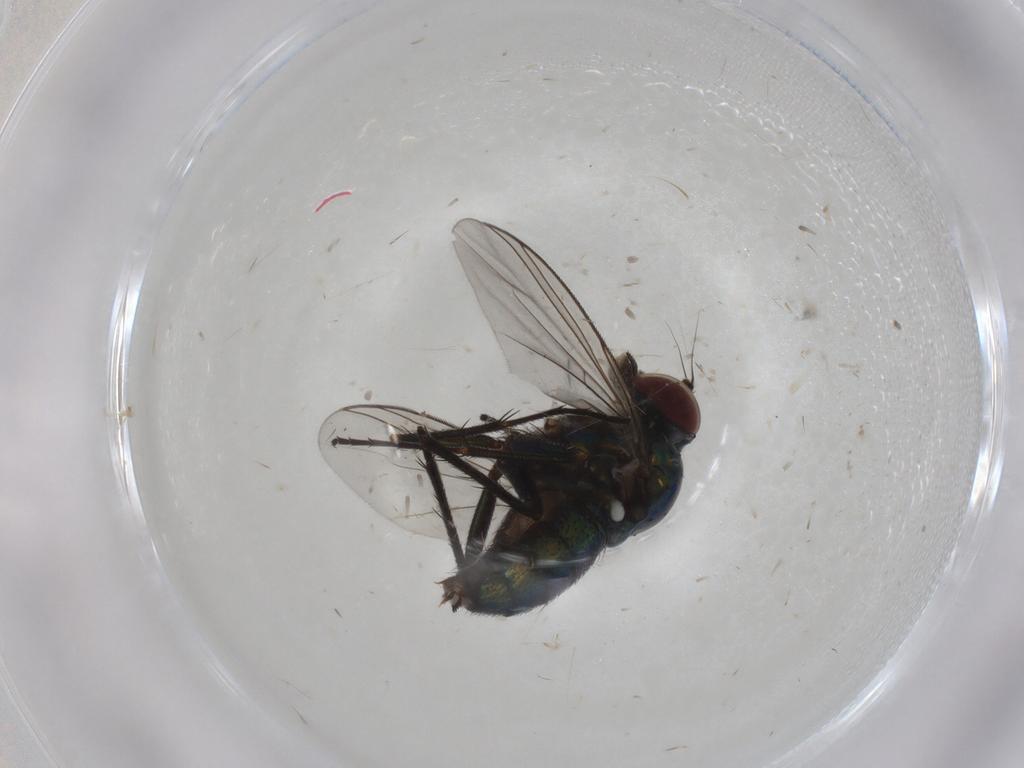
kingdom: Animalia
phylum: Arthropoda
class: Insecta
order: Diptera
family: Dolichopodidae
